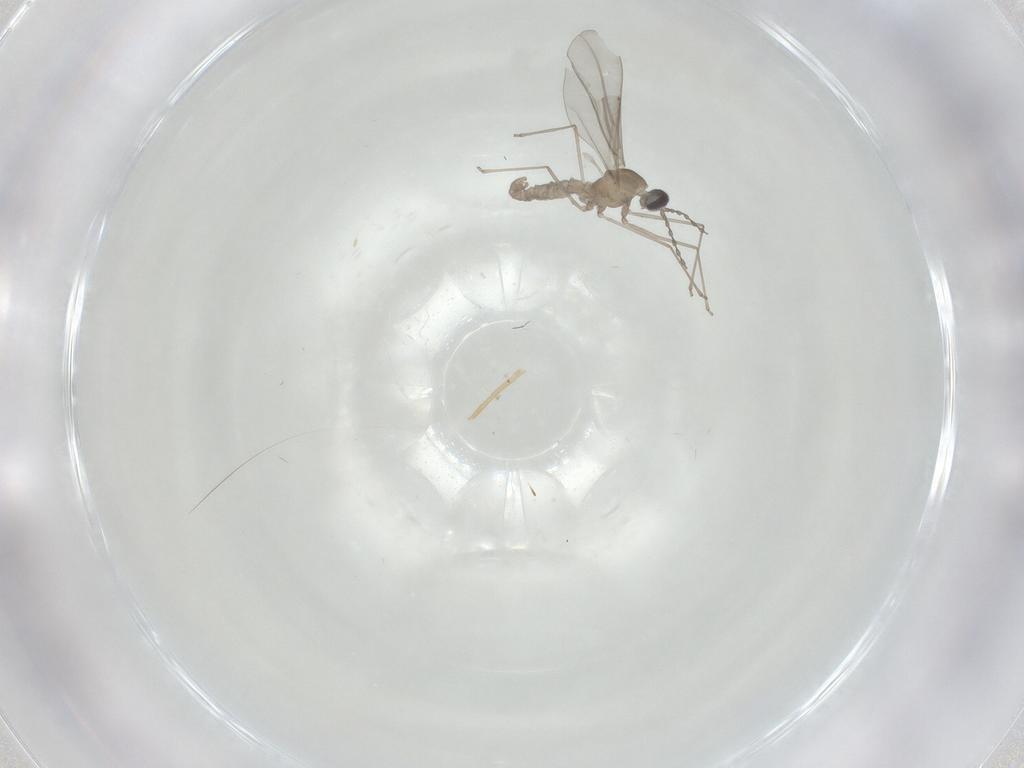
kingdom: Animalia
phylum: Arthropoda
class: Insecta
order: Diptera
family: Cecidomyiidae
